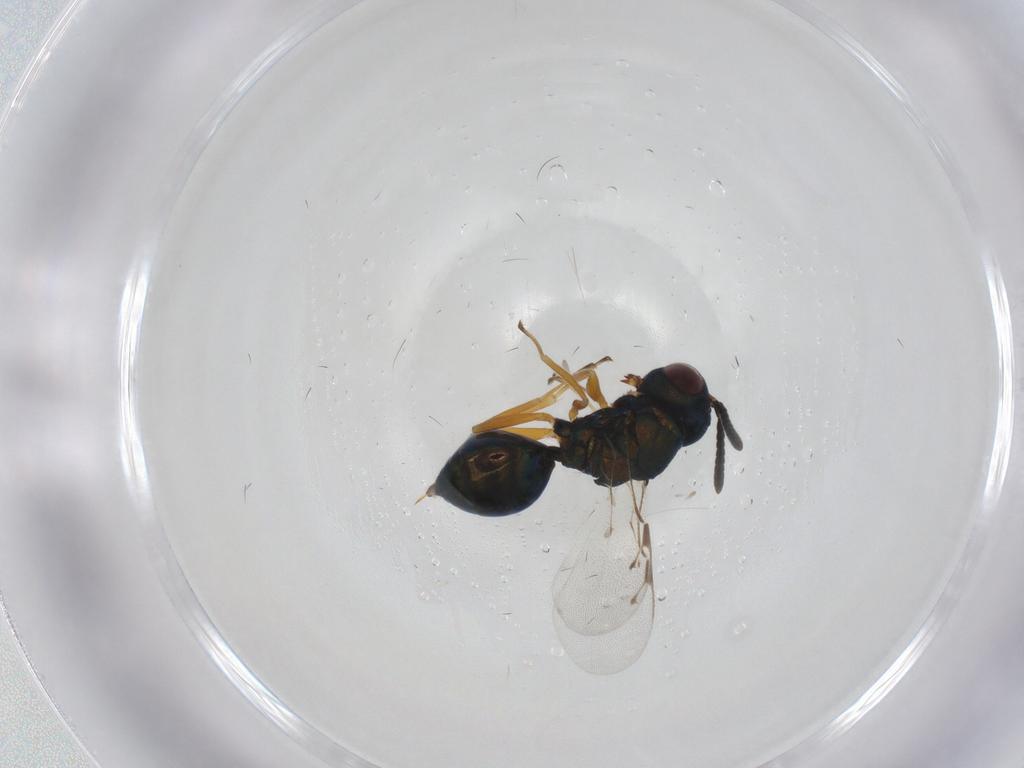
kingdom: Animalia
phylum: Arthropoda
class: Insecta
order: Hymenoptera
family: Pteromalidae
